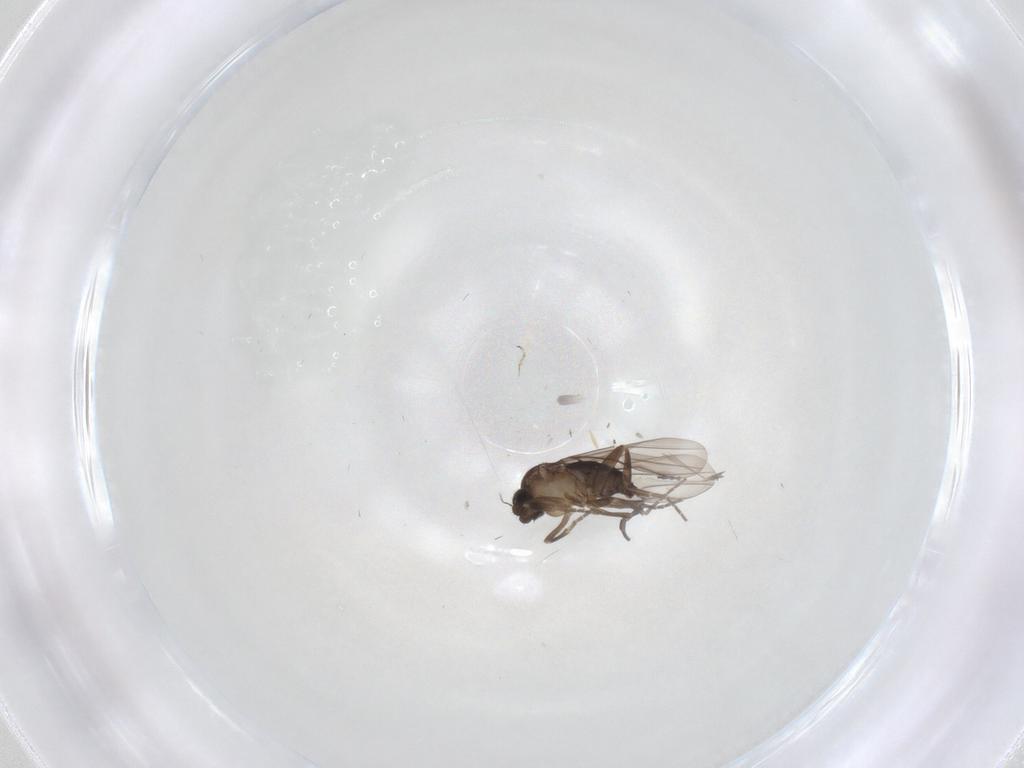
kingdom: Animalia
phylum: Arthropoda
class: Insecta
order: Diptera
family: Phoridae
